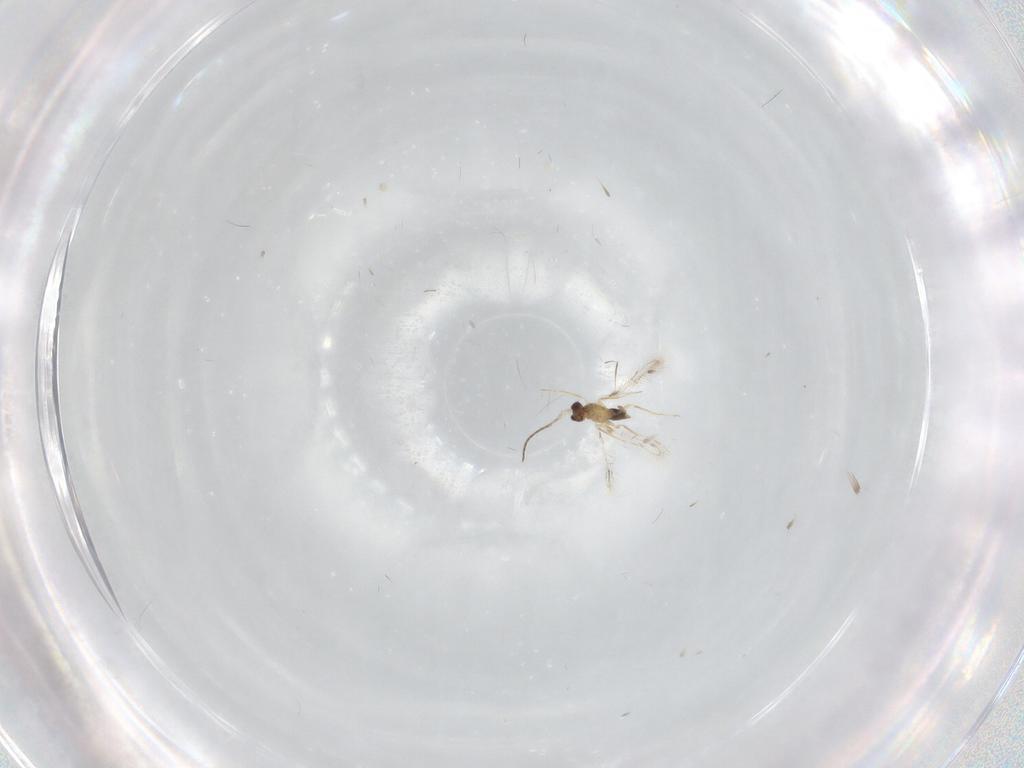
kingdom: Animalia
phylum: Arthropoda
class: Insecta
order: Hymenoptera
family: Mymaridae
